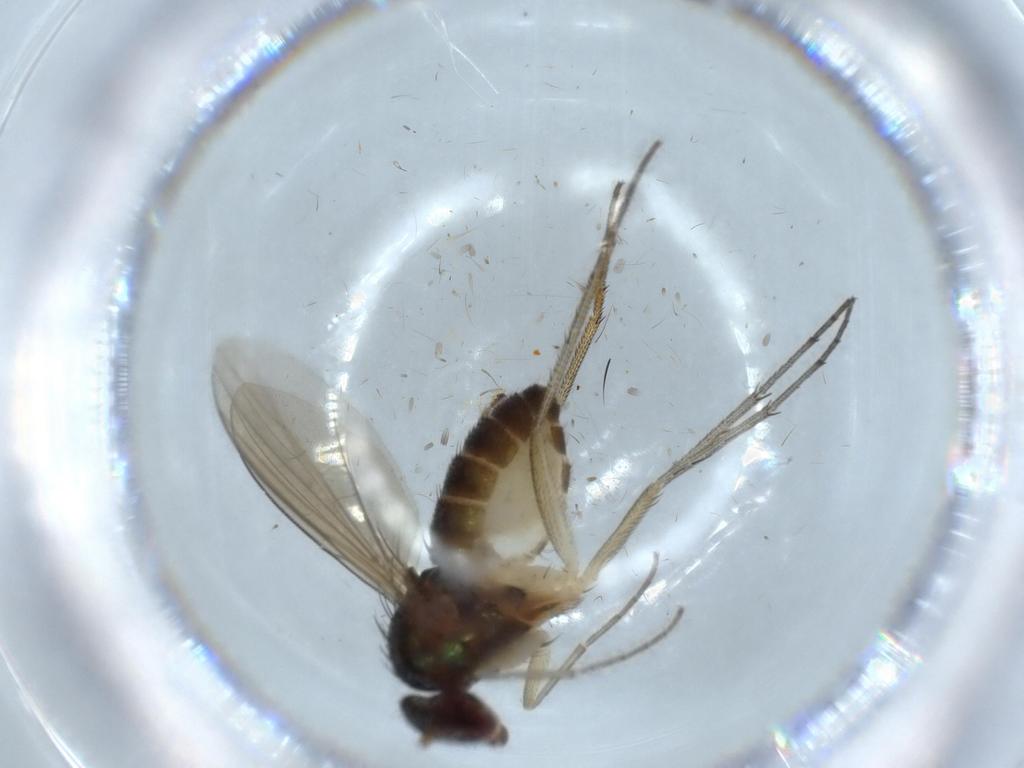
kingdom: Animalia
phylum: Arthropoda
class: Insecta
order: Diptera
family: Dolichopodidae
